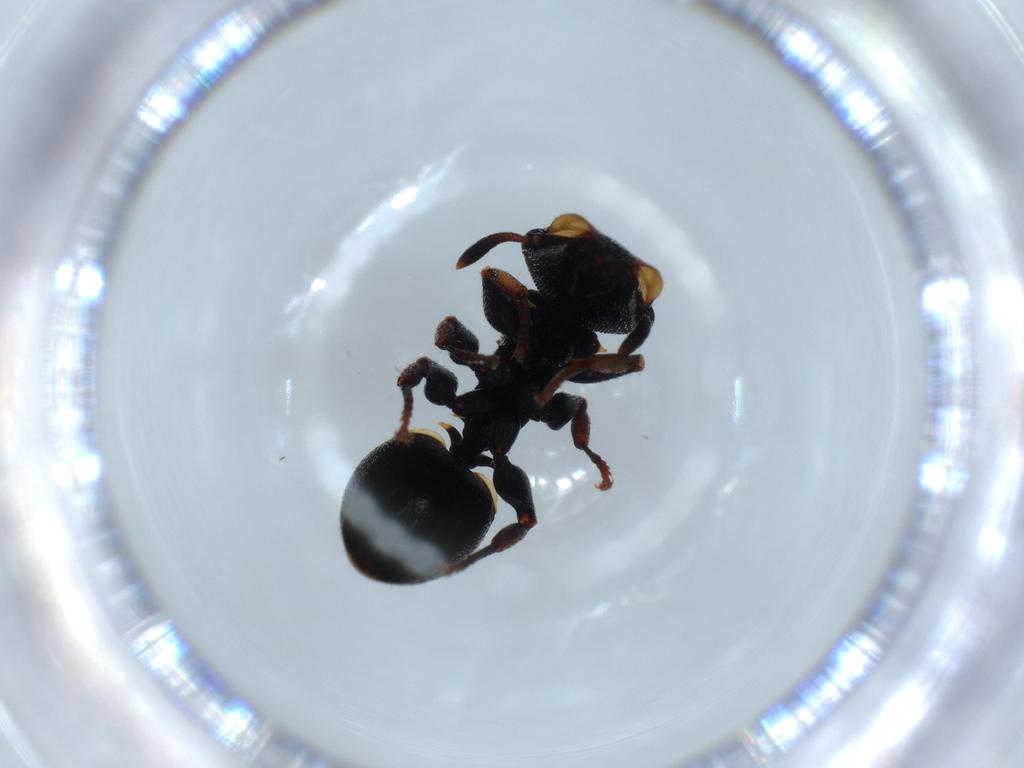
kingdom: Animalia
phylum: Arthropoda
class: Insecta
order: Hymenoptera
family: Formicidae
